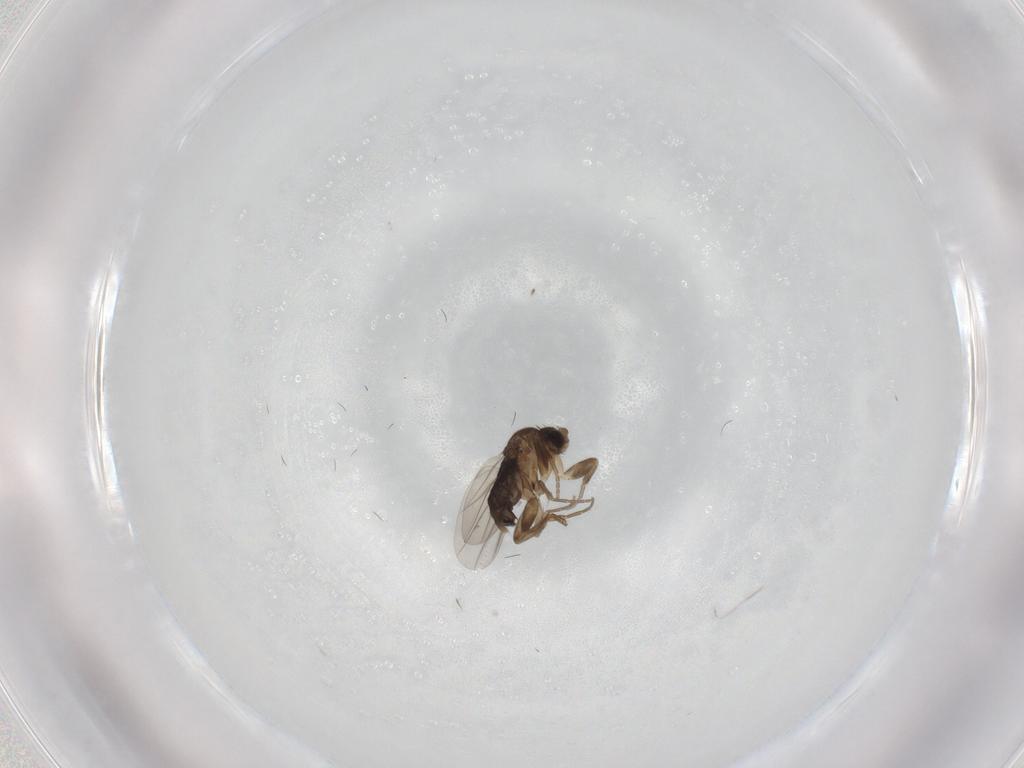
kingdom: Animalia
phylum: Arthropoda
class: Insecta
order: Diptera
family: Phoridae
